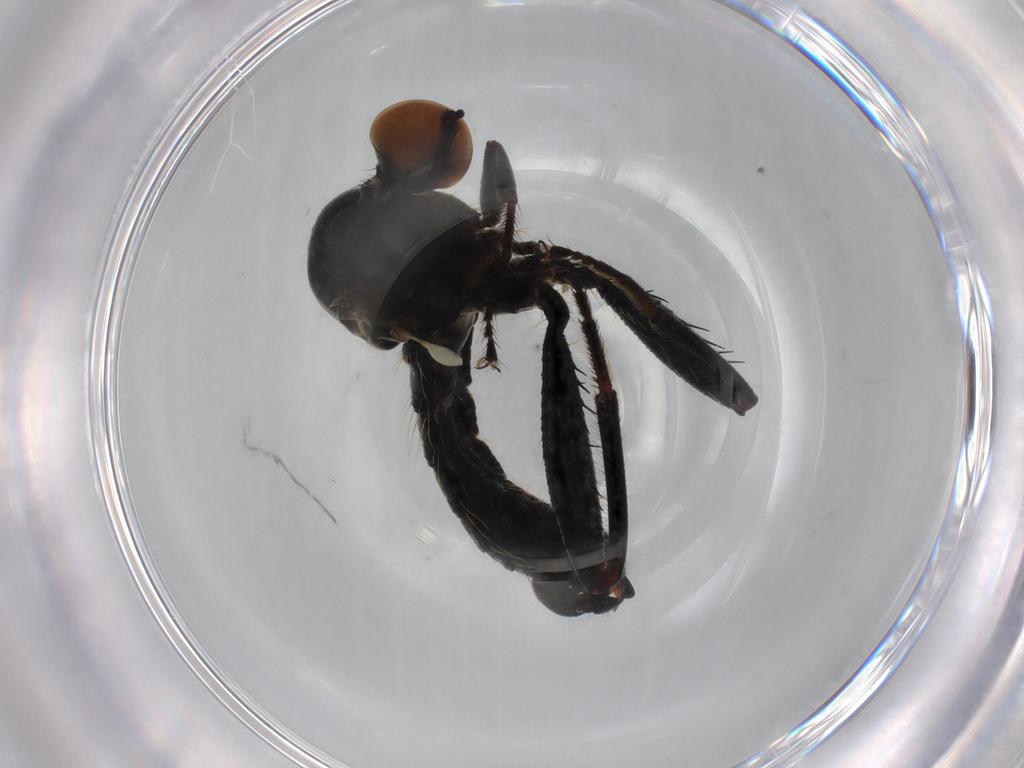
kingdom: Animalia
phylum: Arthropoda
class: Insecta
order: Diptera
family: Hybotidae
